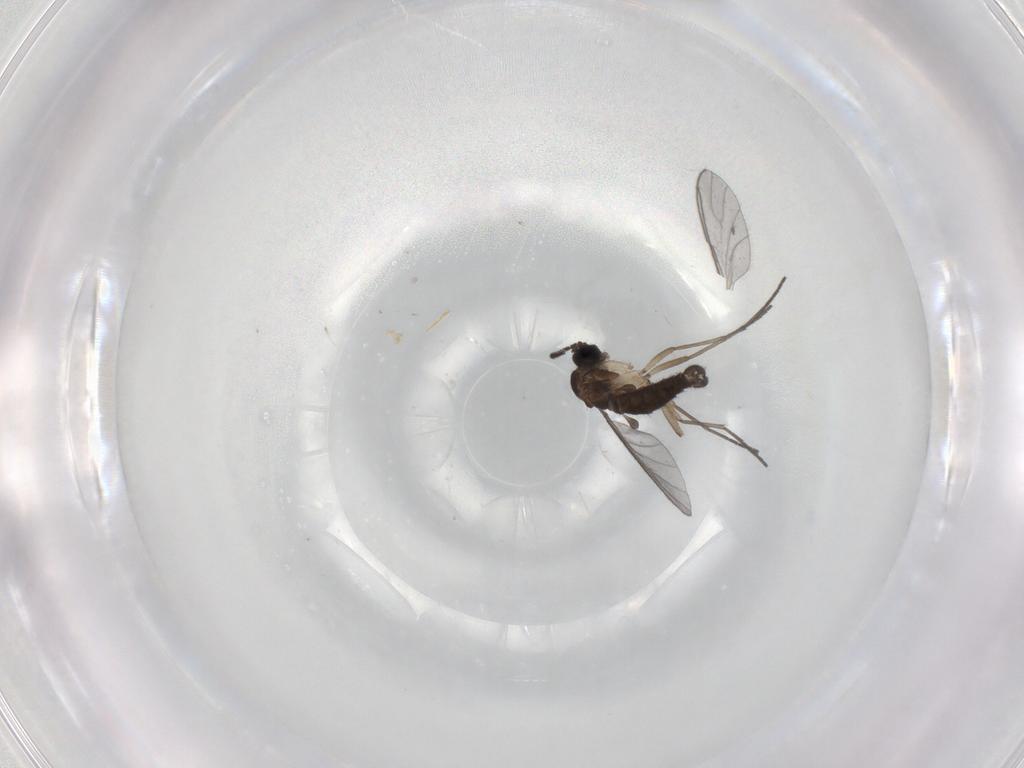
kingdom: Animalia
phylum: Arthropoda
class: Insecta
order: Diptera
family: Sciaridae
